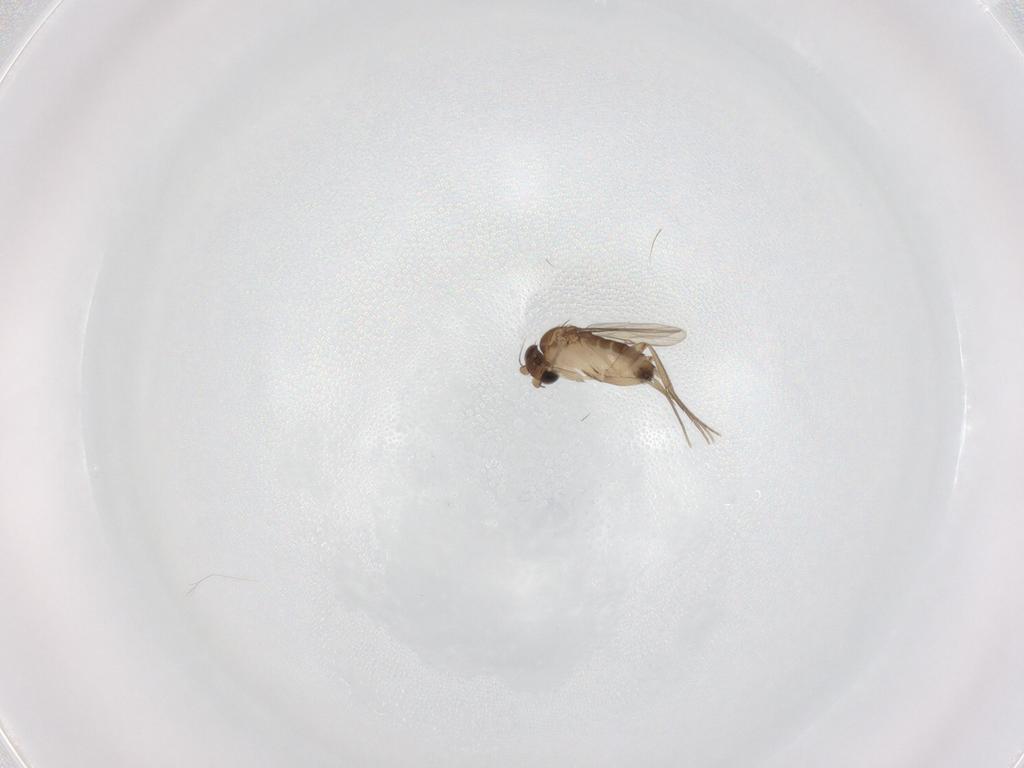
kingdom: Animalia
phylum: Arthropoda
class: Insecta
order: Diptera
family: Phoridae
